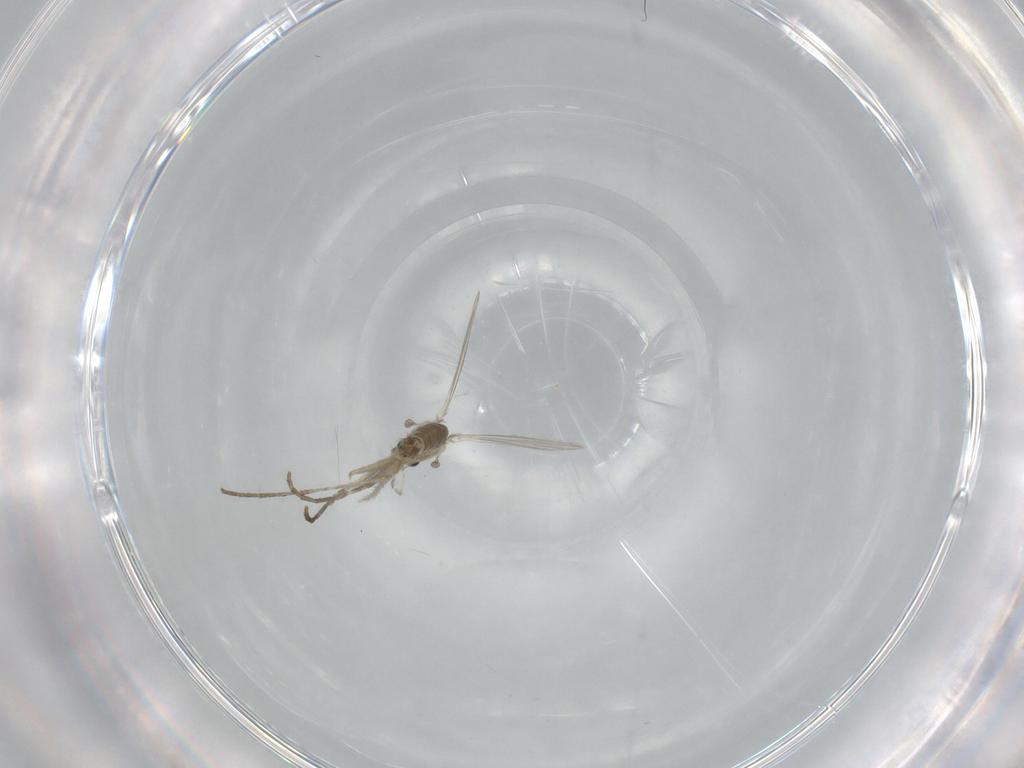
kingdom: Animalia
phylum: Arthropoda
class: Insecta
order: Diptera
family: Psychodidae
